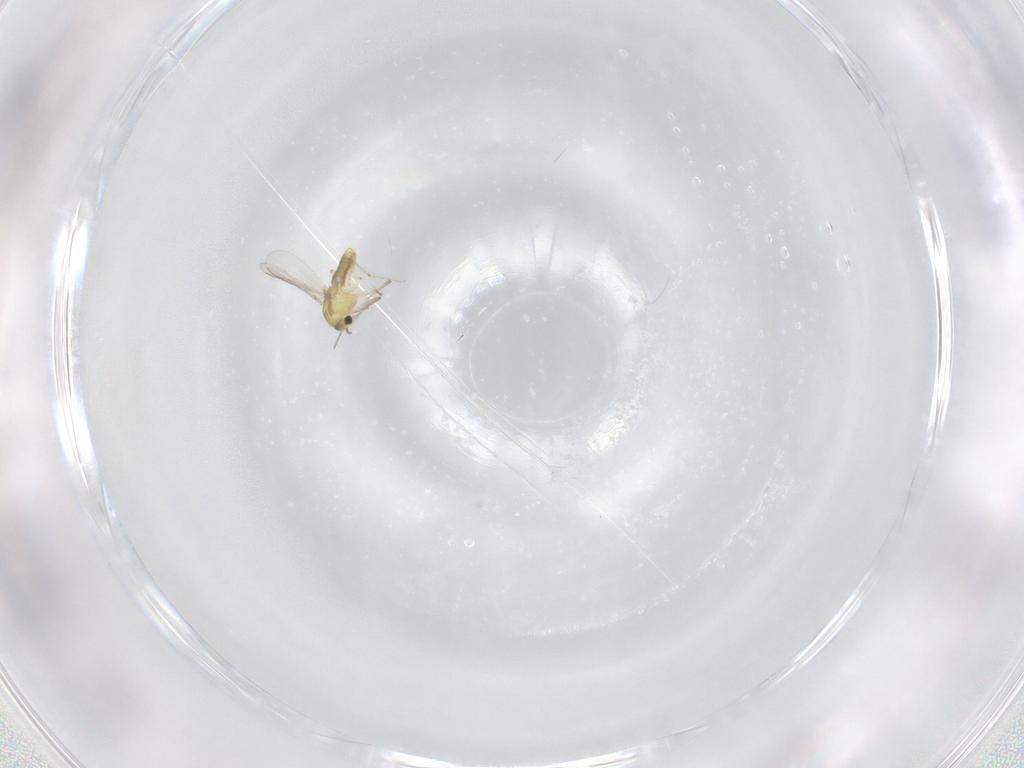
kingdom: Animalia
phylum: Arthropoda
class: Insecta
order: Diptera
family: Chironomidae
